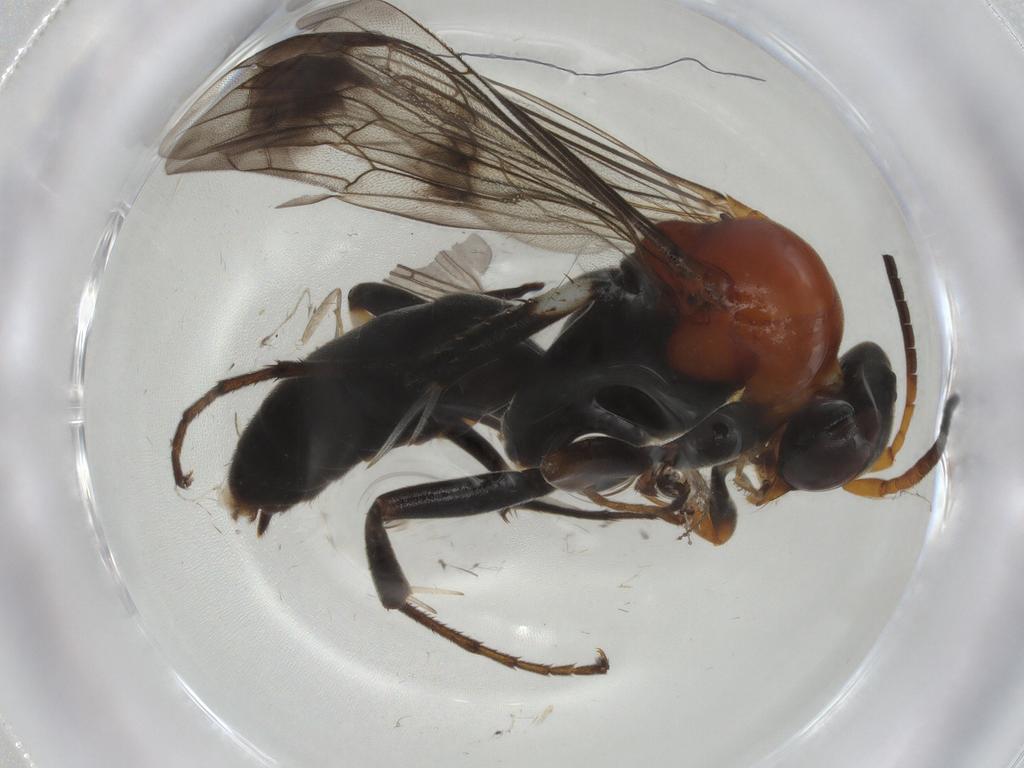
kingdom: Animalia
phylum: Arthropoda
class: Insecta
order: Hymenoptera
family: Pompilidae
